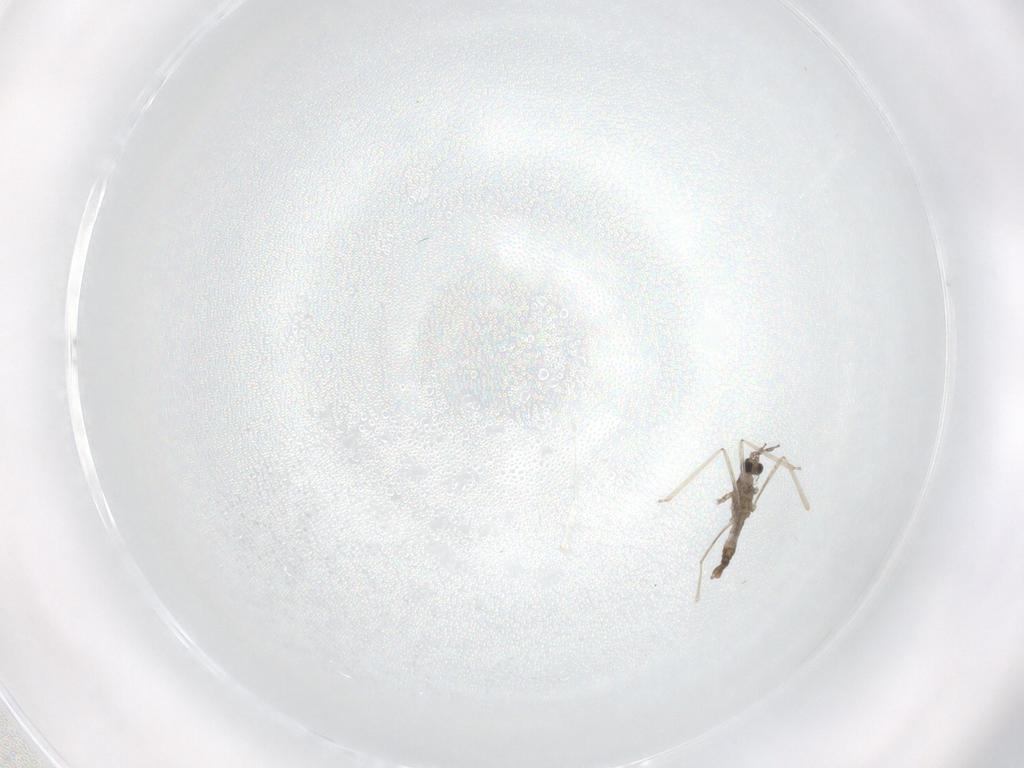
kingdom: Animalia
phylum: Arthropoda
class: Insecta
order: Diptera
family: Cecidomyiidae
